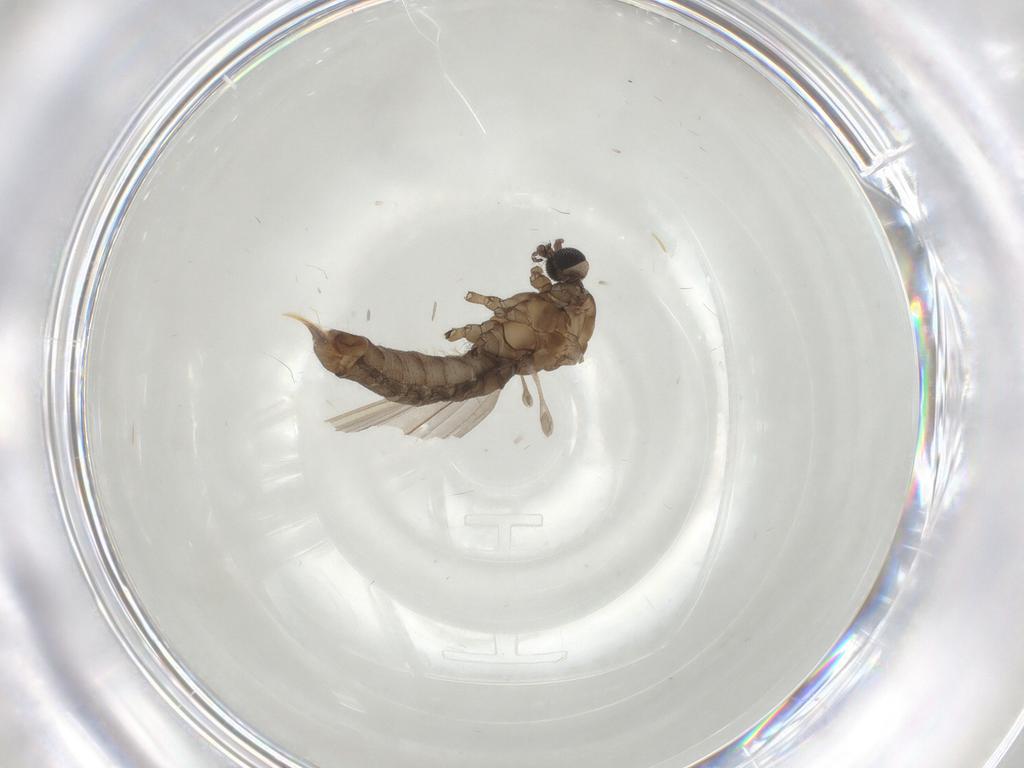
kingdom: Animalia
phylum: Arthropoda
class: Insecta
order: Diptera
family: Limoniidae
